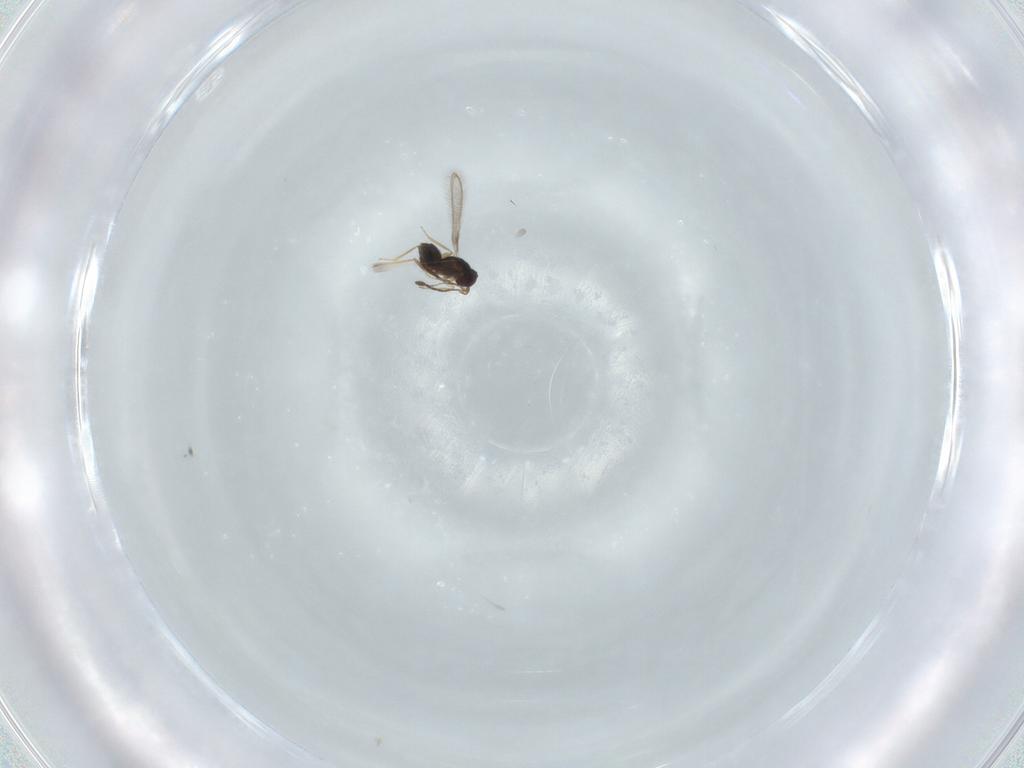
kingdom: Animalia
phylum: Arthropoda
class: Insecta
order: Hymenoptera
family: Mymaridae
